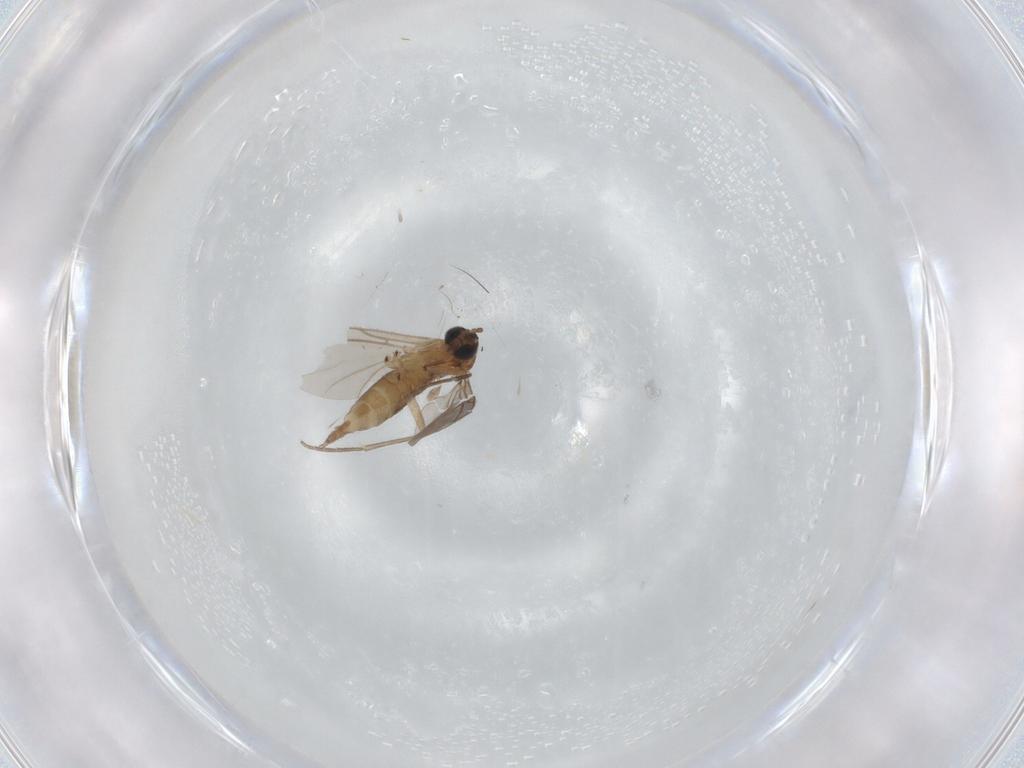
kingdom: Animalia
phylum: Arthropoda
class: Insecta
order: Diptera
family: Sciaridae
